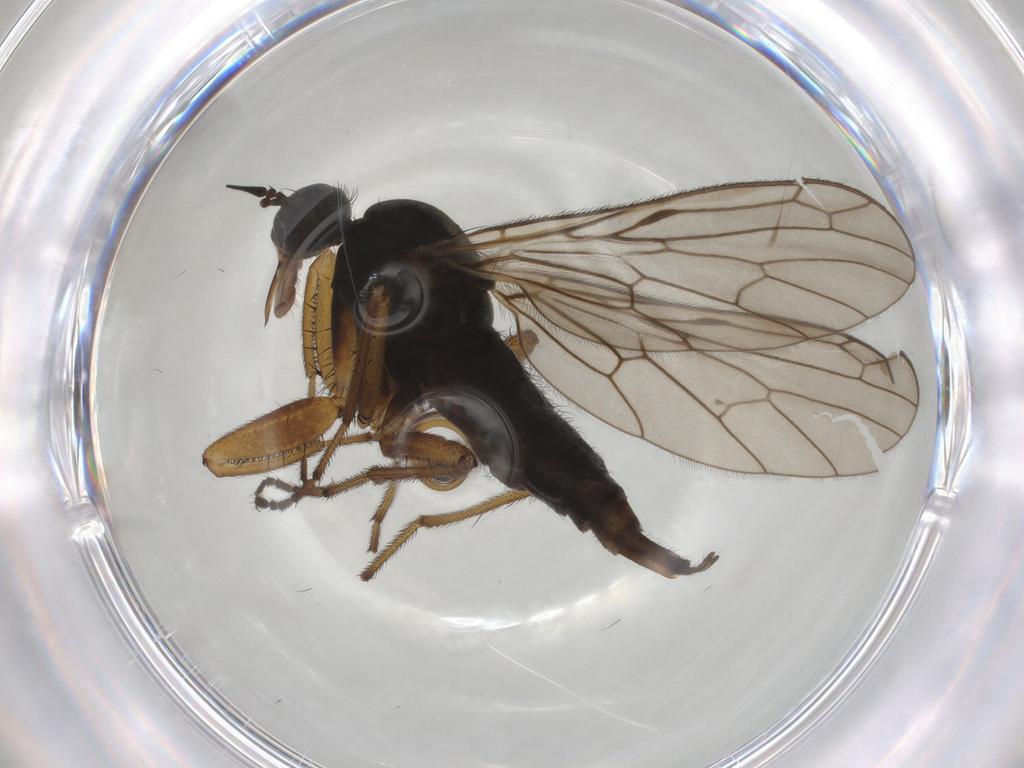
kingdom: Animalia
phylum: Arthropoda
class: Insecta
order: Diptera
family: Empididae
